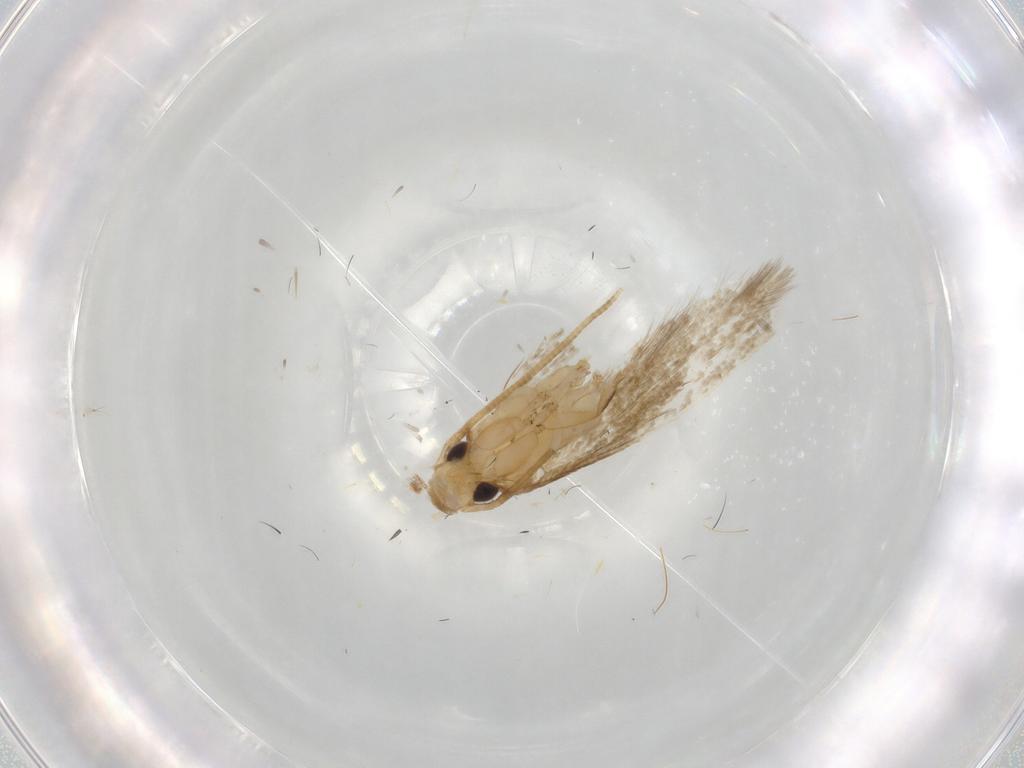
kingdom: Animalia
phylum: Arthropoda
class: Insecta
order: Lepidoptera
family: Tineidae
